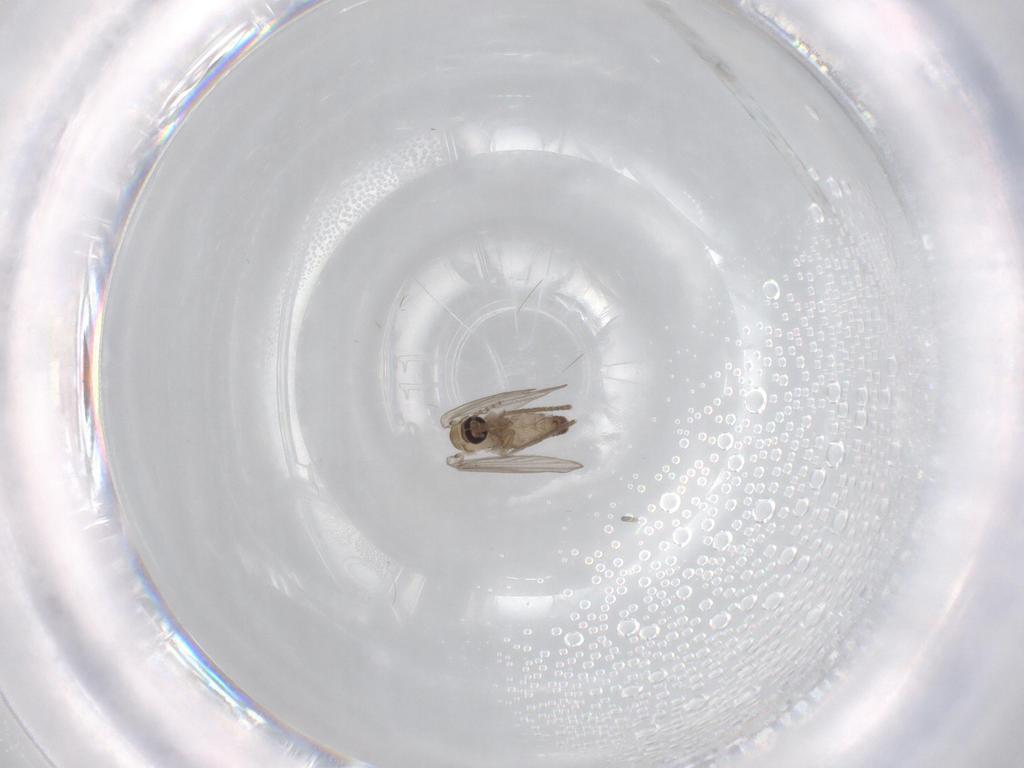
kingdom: Animalia
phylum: Arthropoda
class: Insecta
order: Diptera
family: Psychodidae
